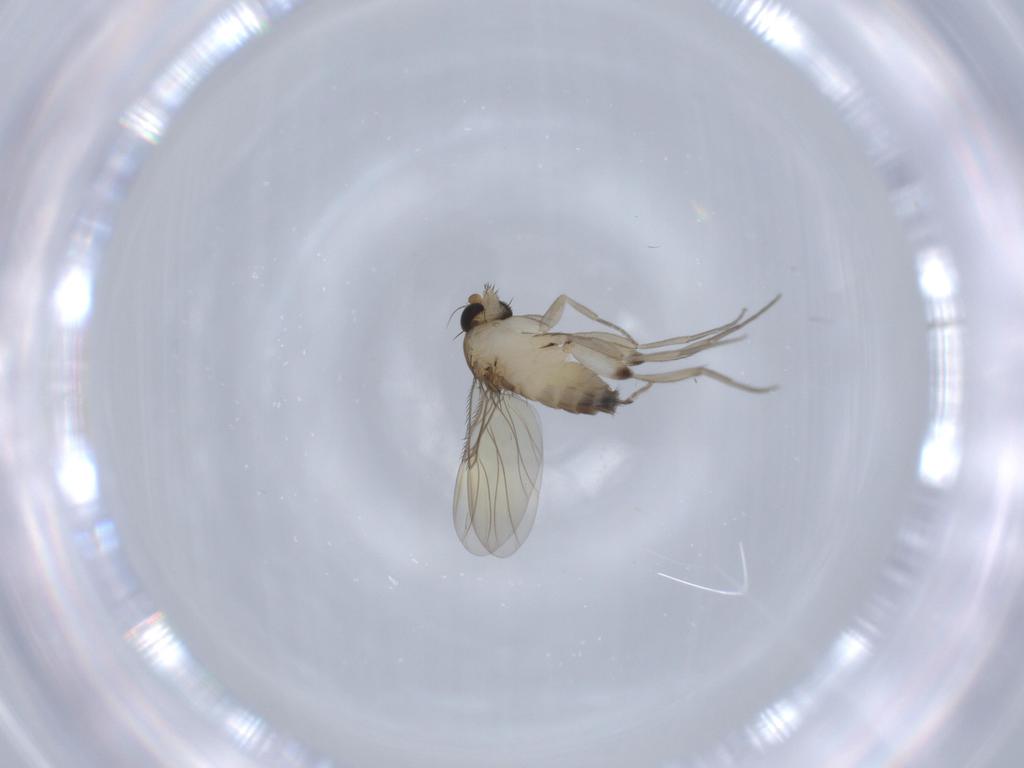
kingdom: Animalia
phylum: Arthropoda
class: Insecta
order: Diptera
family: Phoridae
